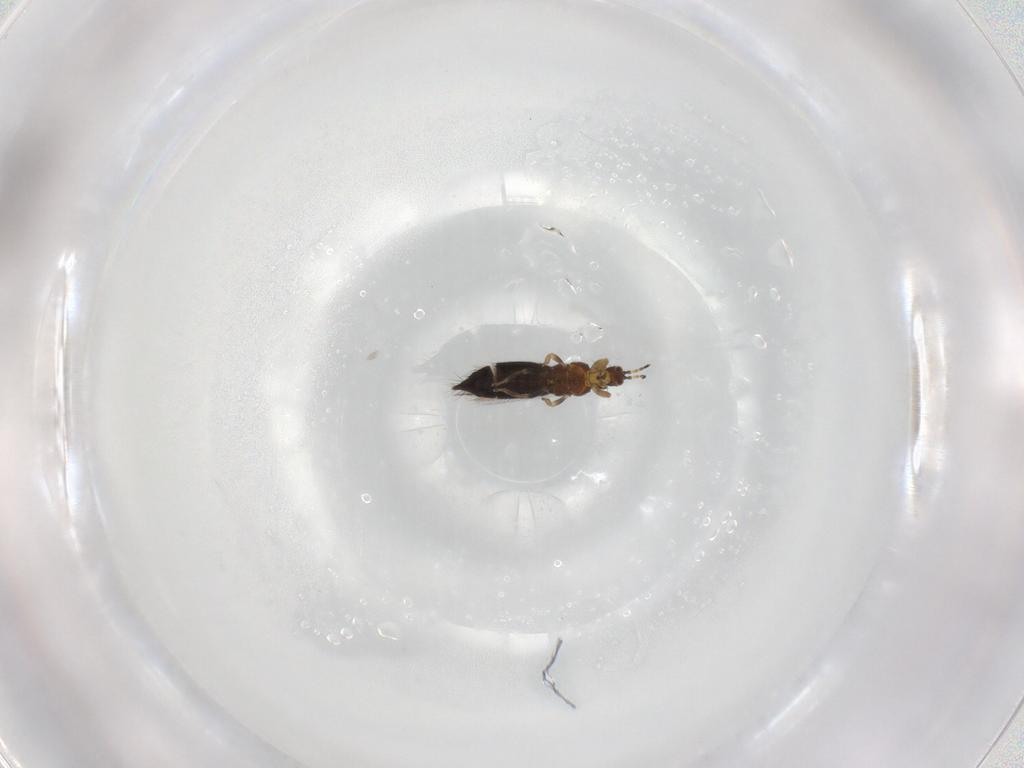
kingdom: Animalia
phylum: Arthropoda
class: Insecta
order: Thysanoptera
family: Thripidae
